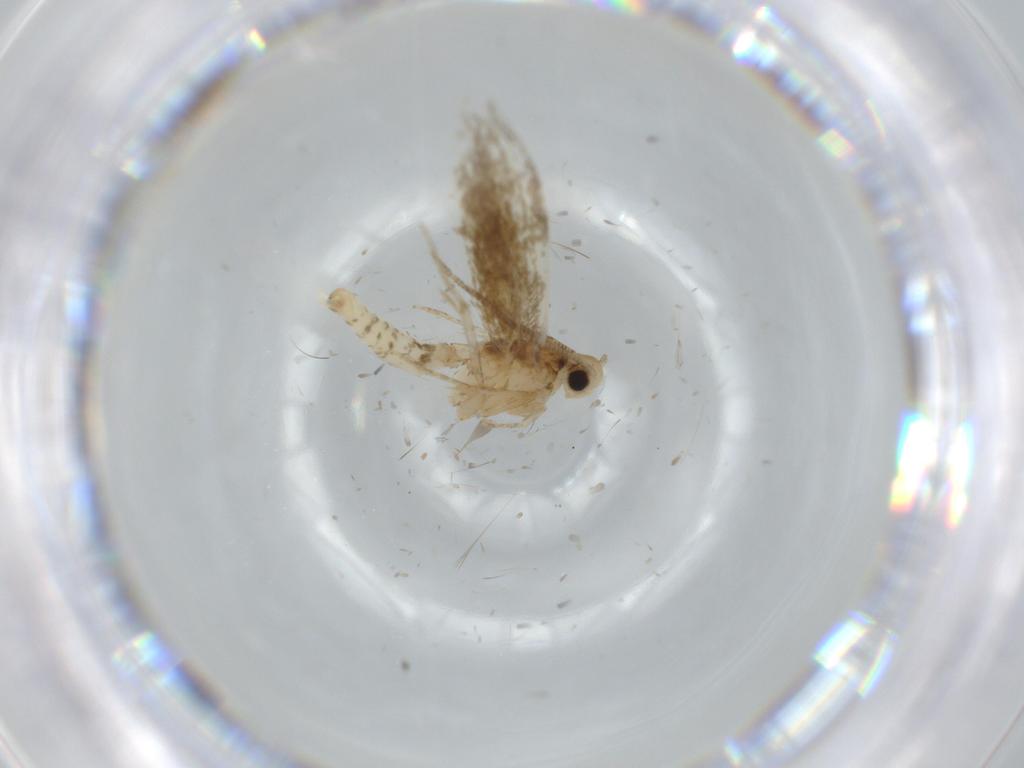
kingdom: Animalia
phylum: Arthropoda
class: Insecta
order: Lepidoptera
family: Tineidae
